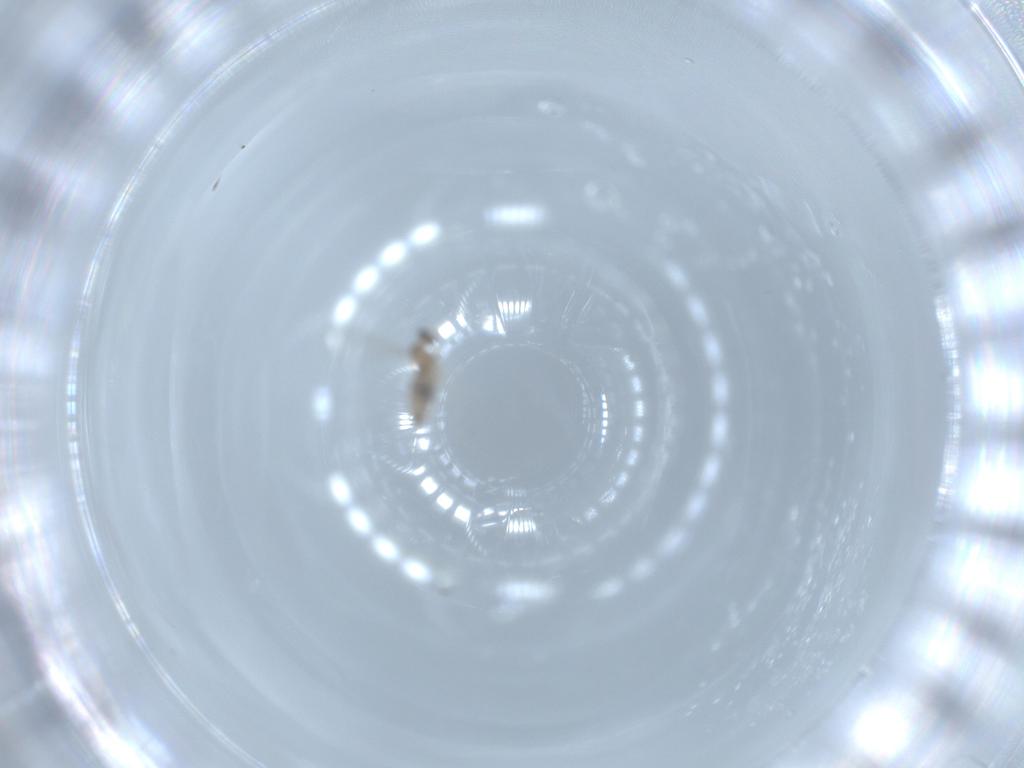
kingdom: Animalia
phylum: Arthropoda
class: Insecta
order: Diptera
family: Cecidomyiidae
